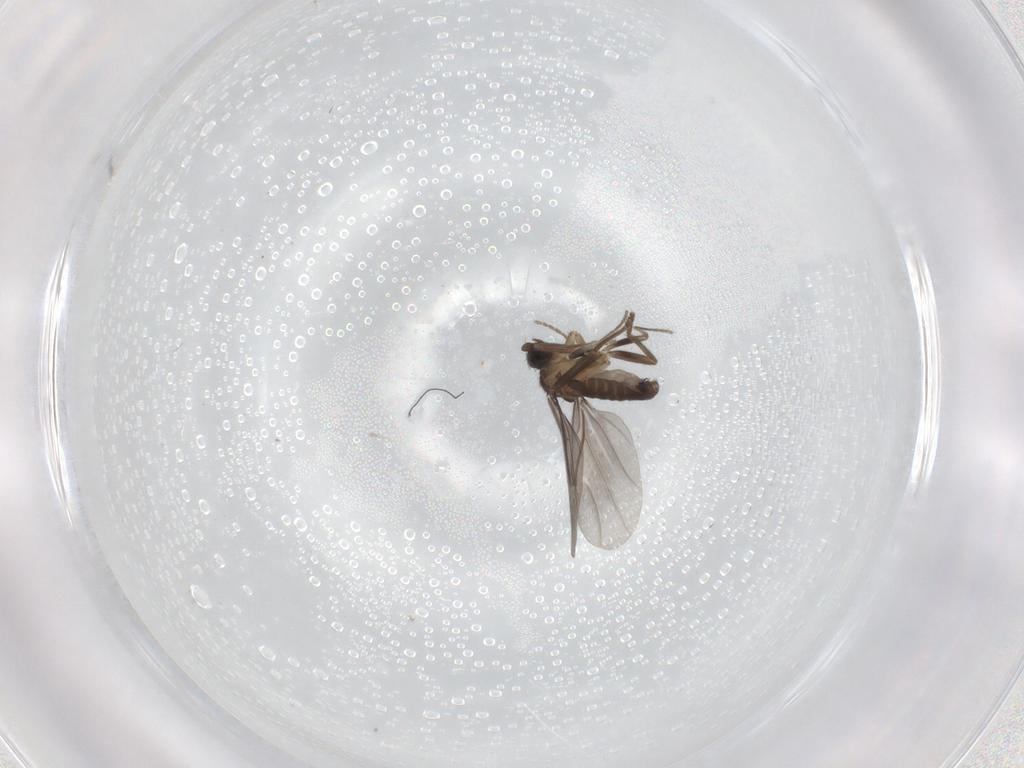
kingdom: Animalia
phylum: Arthropoda
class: Insecta
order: Diptera
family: Phoridae
